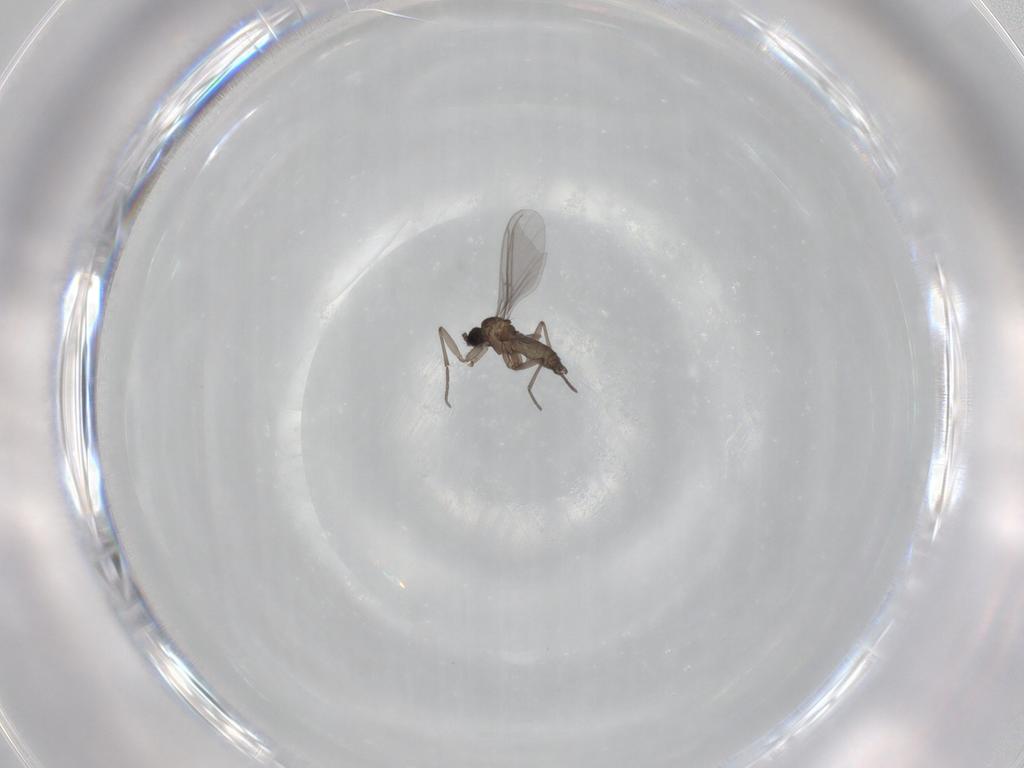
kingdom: Animalia
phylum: Arthropoda
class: Insecta
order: Diptera
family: Sciaridae
